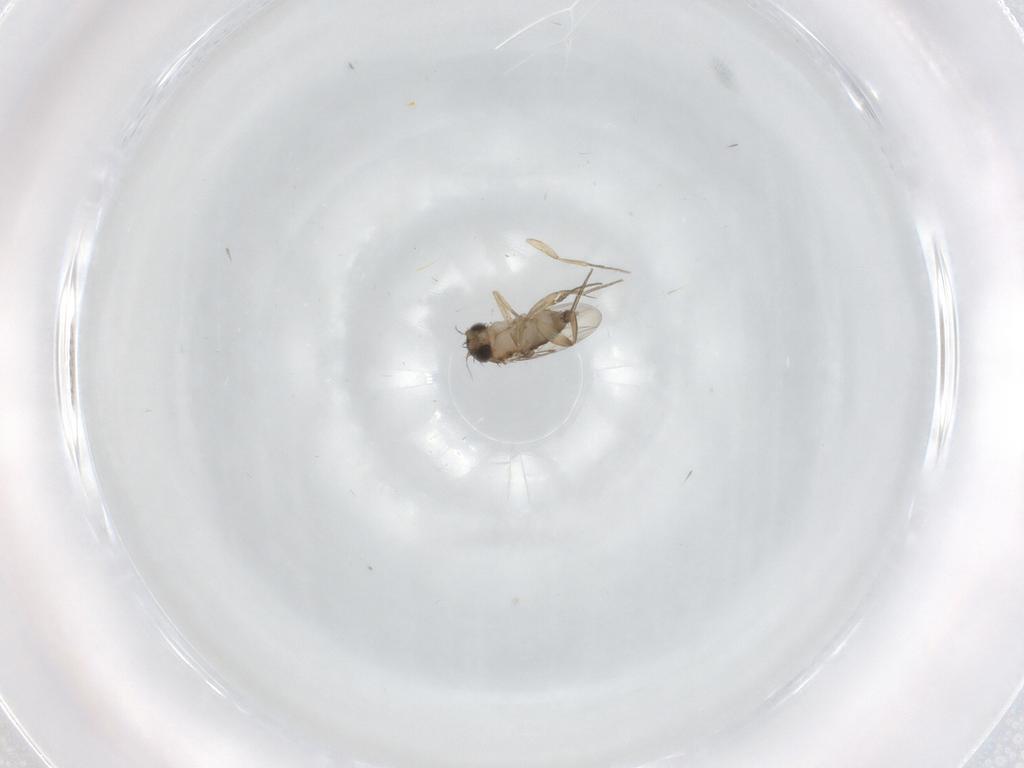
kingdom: Animalia
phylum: Arthropoda
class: Insecta
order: Diptera
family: Phoridae
